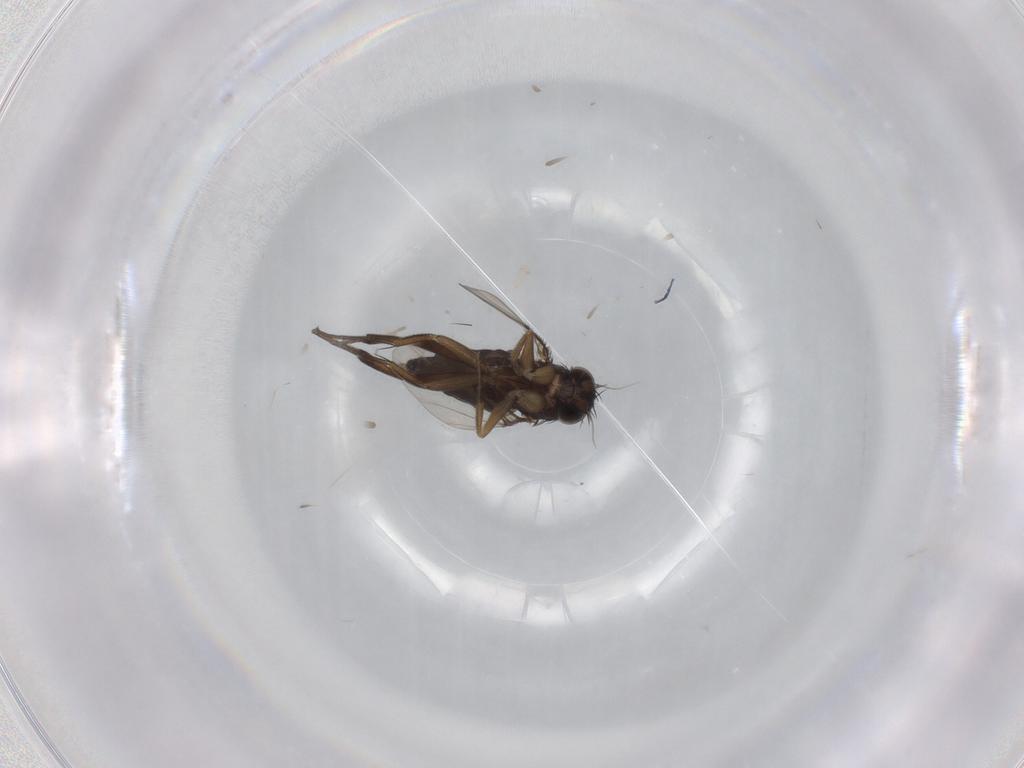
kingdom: Animalia
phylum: Arthropoda
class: Insecta
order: Diptera
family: Phoridae
